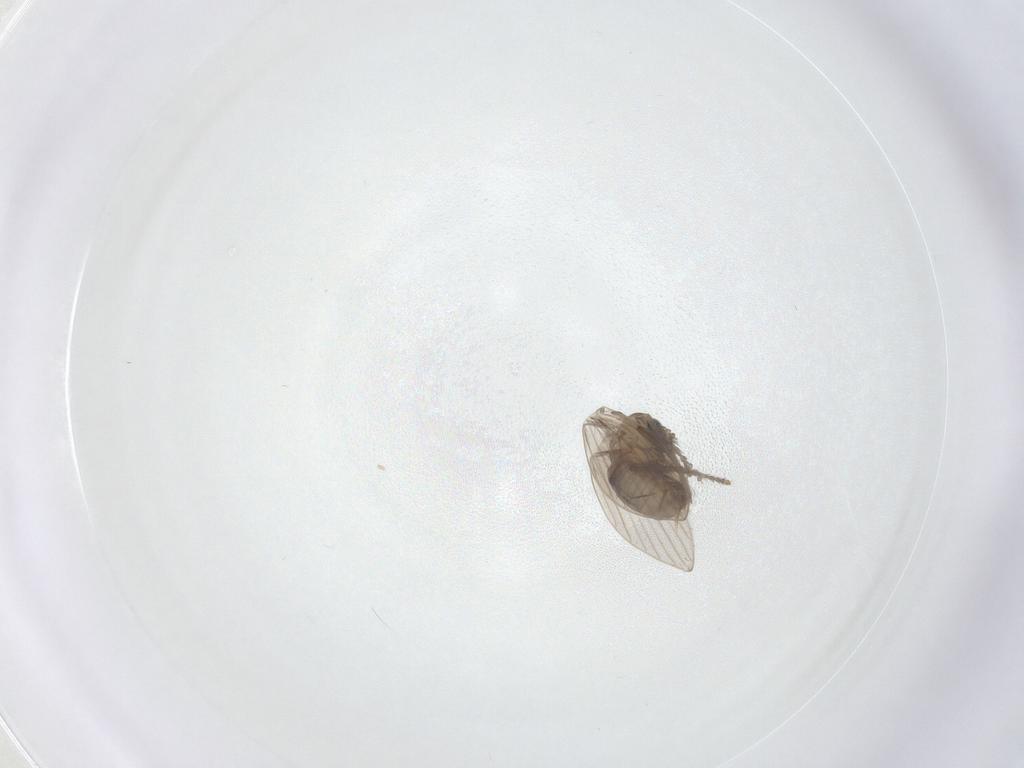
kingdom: Animalia
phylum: Arthropoda
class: Insecta
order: Diptera
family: Psychodidae
